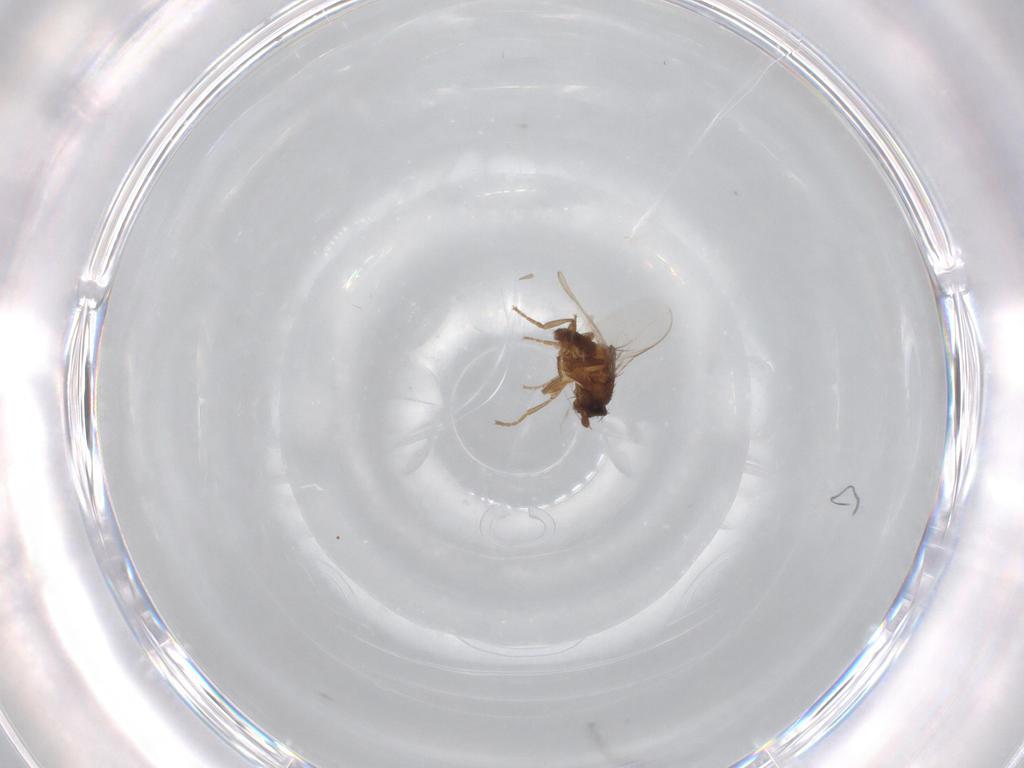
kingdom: Animalia
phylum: Arthropoda
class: Insecta
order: Diptera
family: Sphaeroceridae
